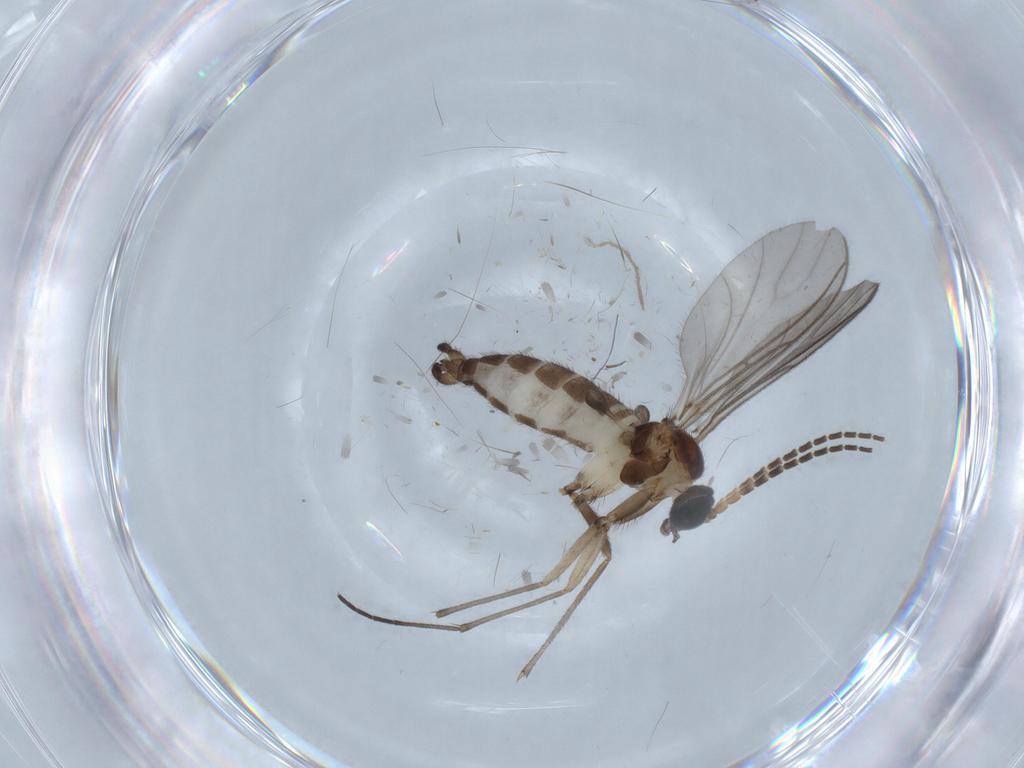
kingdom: Animalia
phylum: Arthropoda
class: Insecta
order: Diptera
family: Sciaridae
